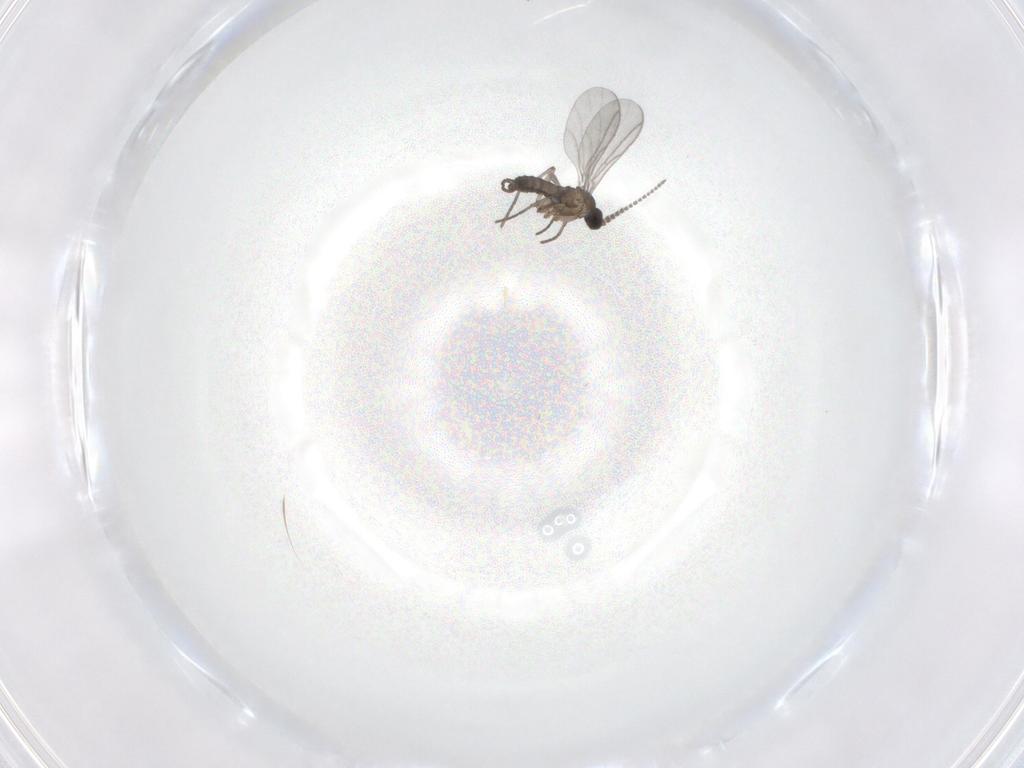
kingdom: Animalia
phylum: Arthropoda
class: Insecta
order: Diptera
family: Sciaridae
